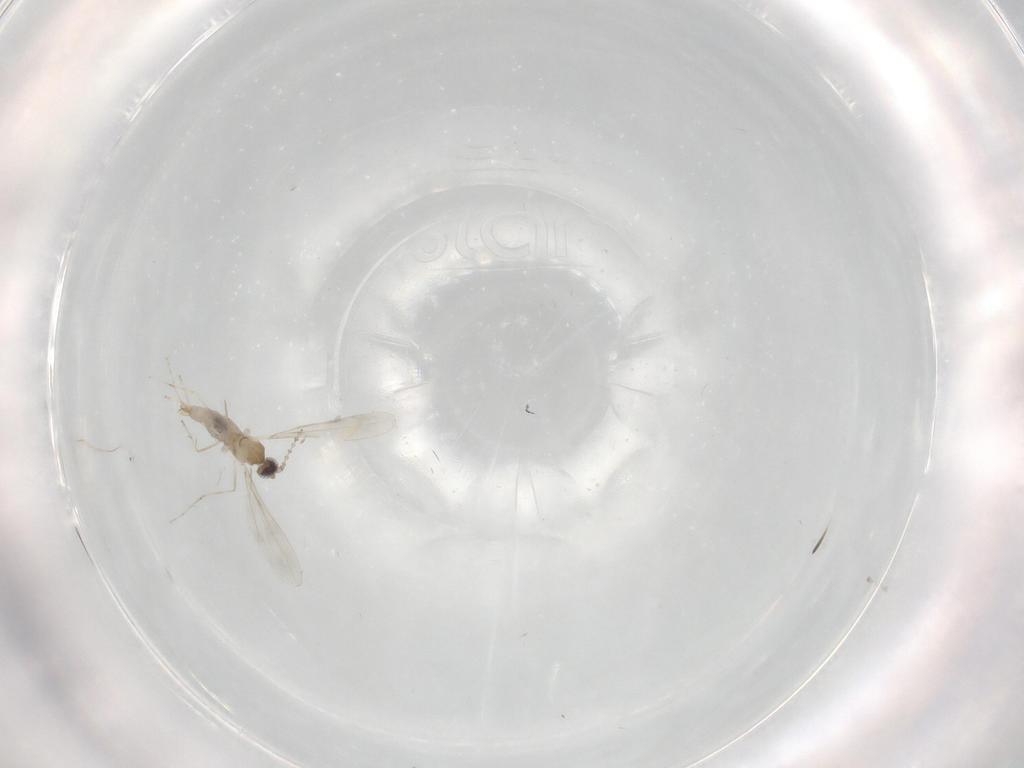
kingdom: Animalia
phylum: Arthropoda
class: Insecta
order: Diptera
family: Cecidomyiidae
